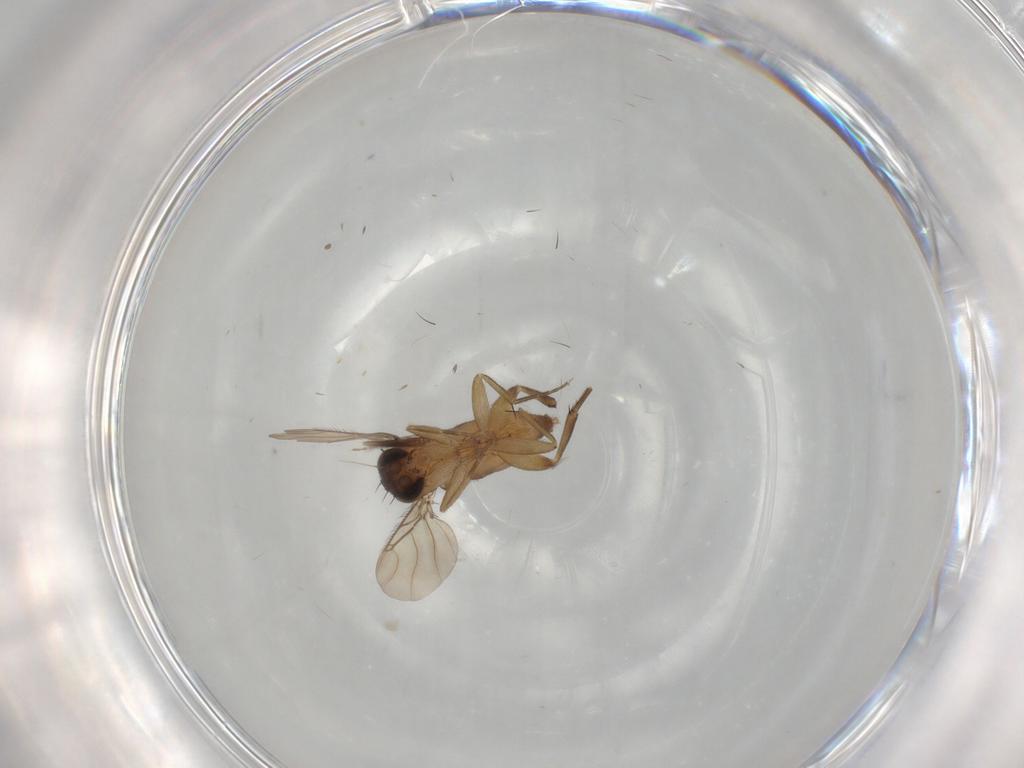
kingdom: Animalia
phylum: Arthropoda
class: Insecta
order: Diptera
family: Phoridae
